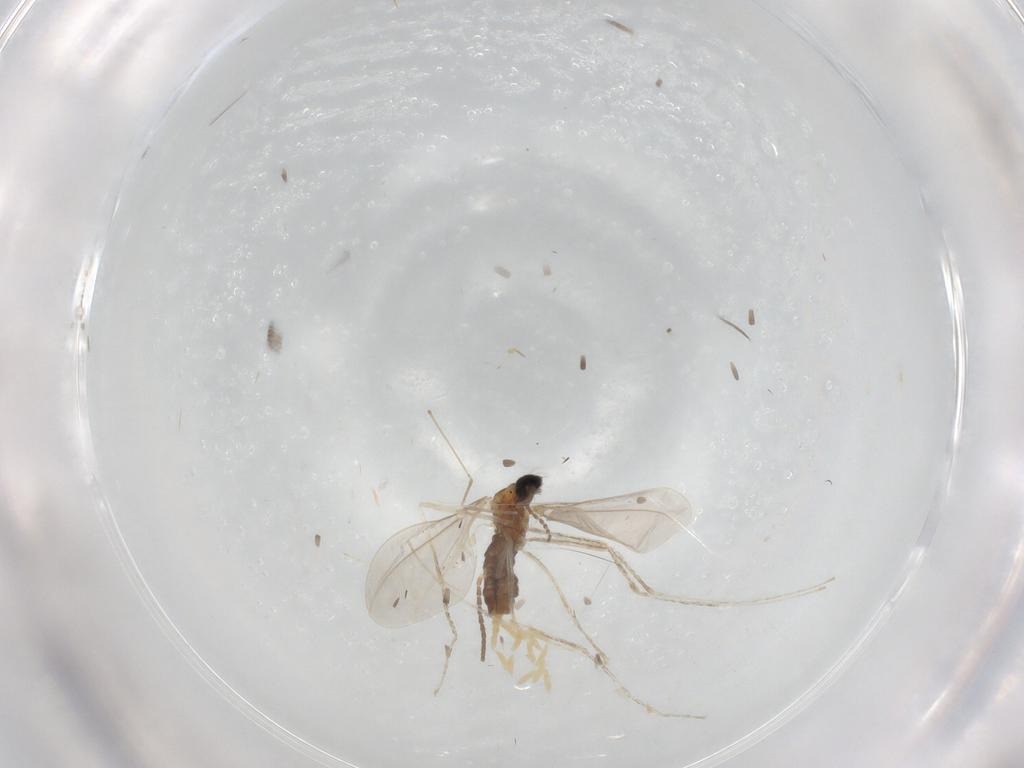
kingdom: Animalia
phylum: Arthropoda
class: Insecta
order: Diptera
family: Cecidomyiidae
